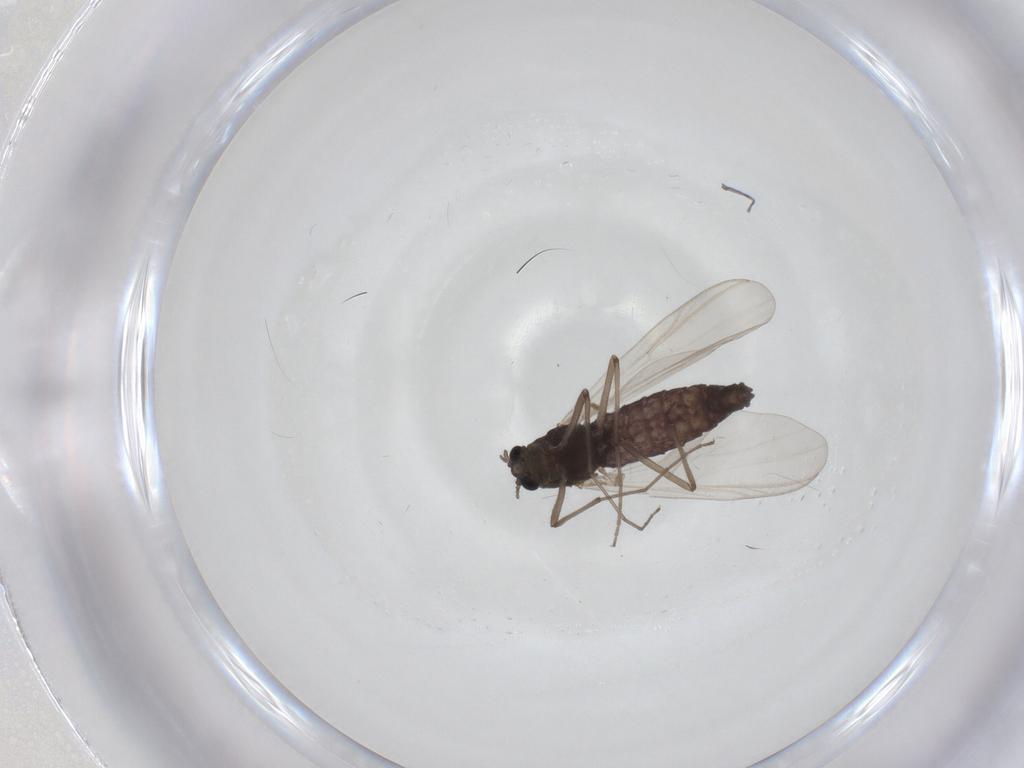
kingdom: Animalia
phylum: Arthropoda
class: Insecta
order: Diptera
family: Chironomidae
